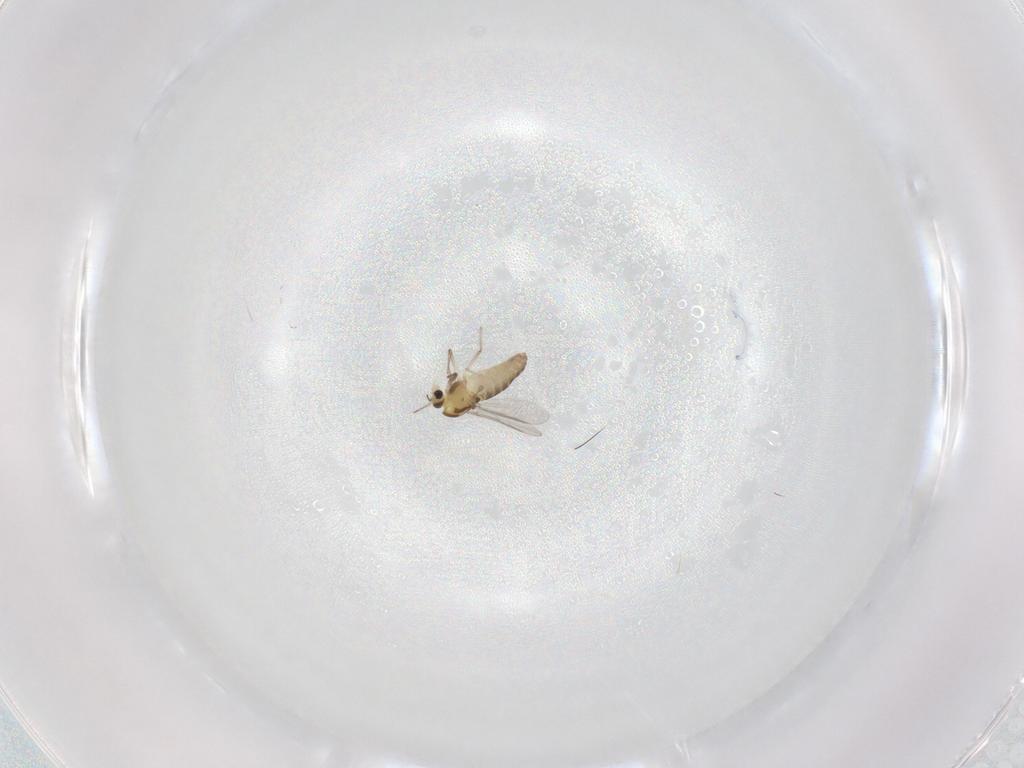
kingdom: Animalia
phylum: Arthropoda
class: Insecta
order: Diptera
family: Chironomidae
